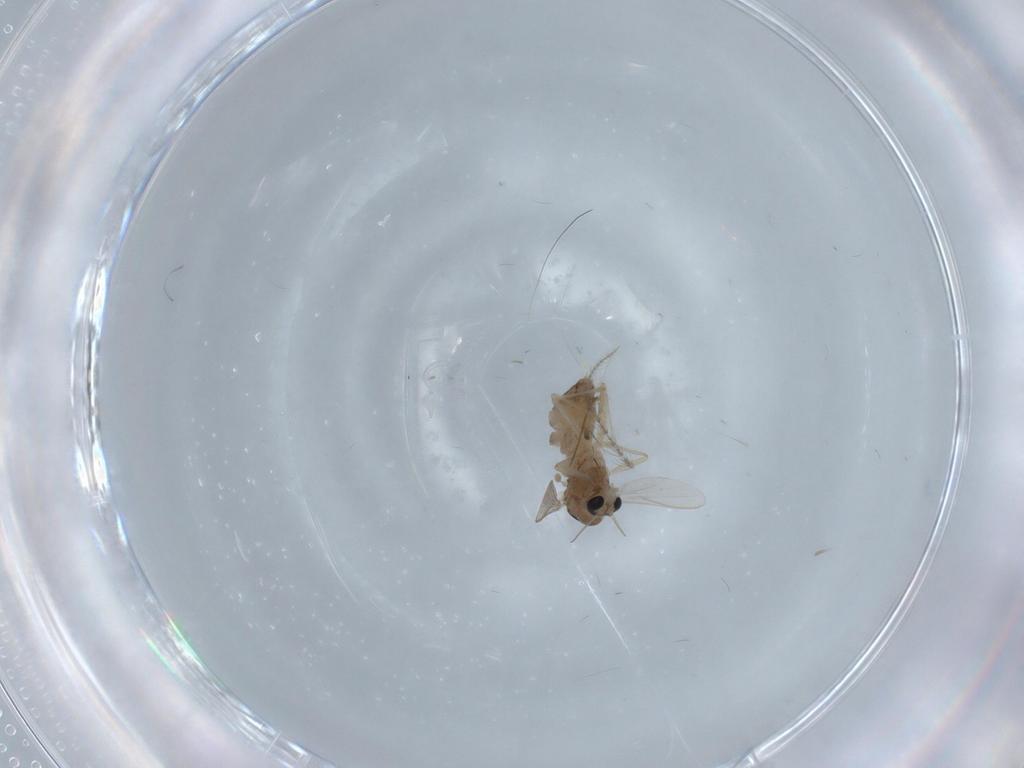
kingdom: Animalia
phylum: Arthropoda
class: Insecta
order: Diptera
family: Chironomidae
